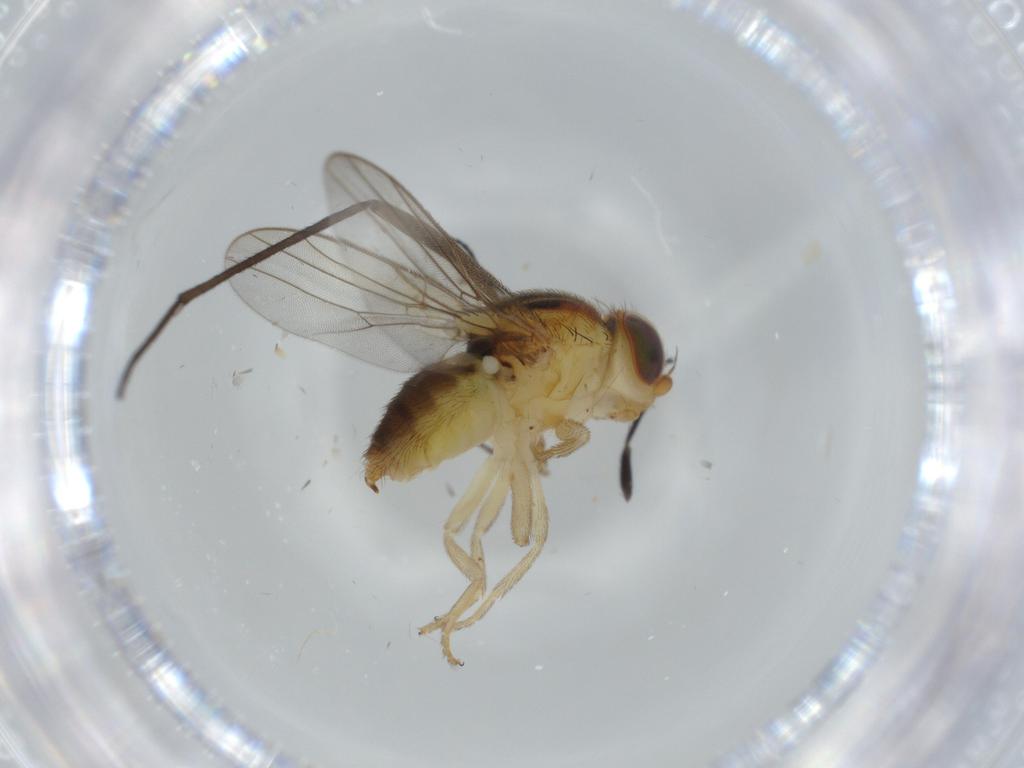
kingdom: Animalia
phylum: Arthropoda
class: Insecta
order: Diptera
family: Chloropidae
